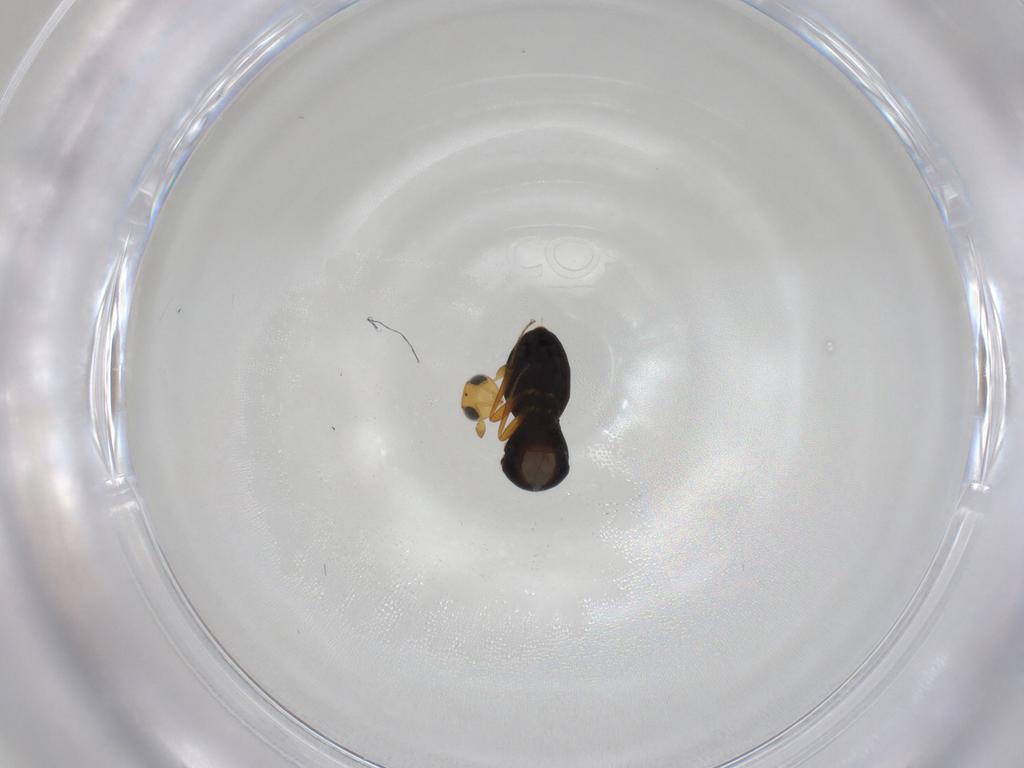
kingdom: Animalia
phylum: Arthropoda
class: Insecta
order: Hymenoptera
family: Scelionidae
